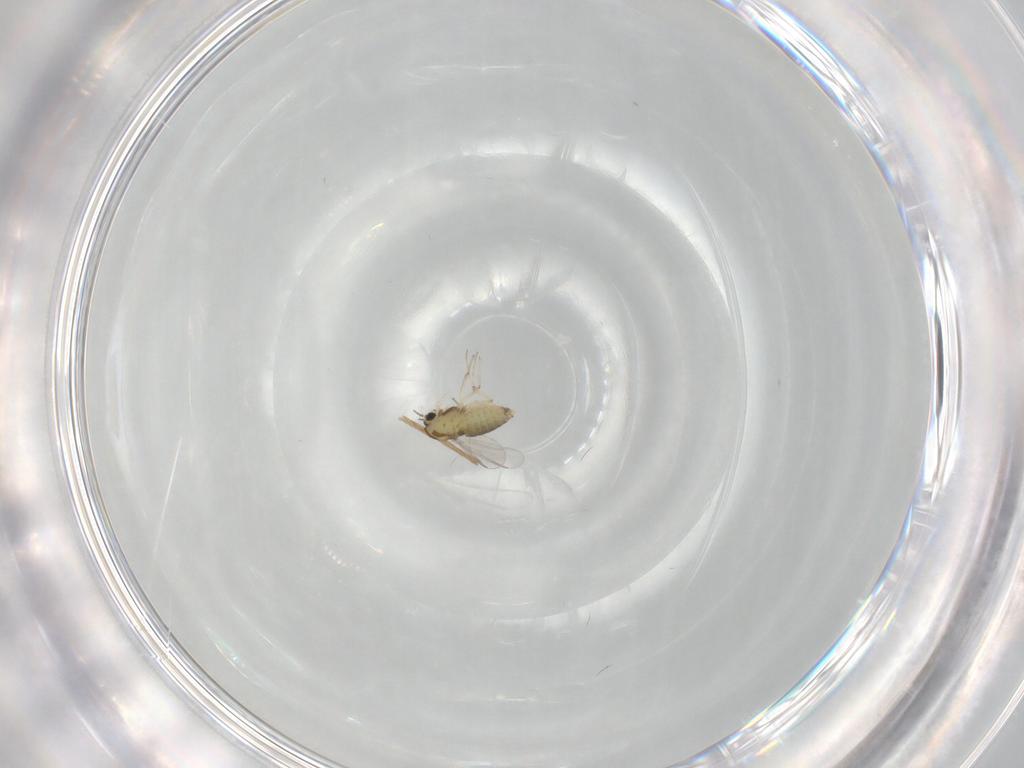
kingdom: Animalia
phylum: Arthropoda
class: Insecta
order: Diptera
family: Chironomidae
